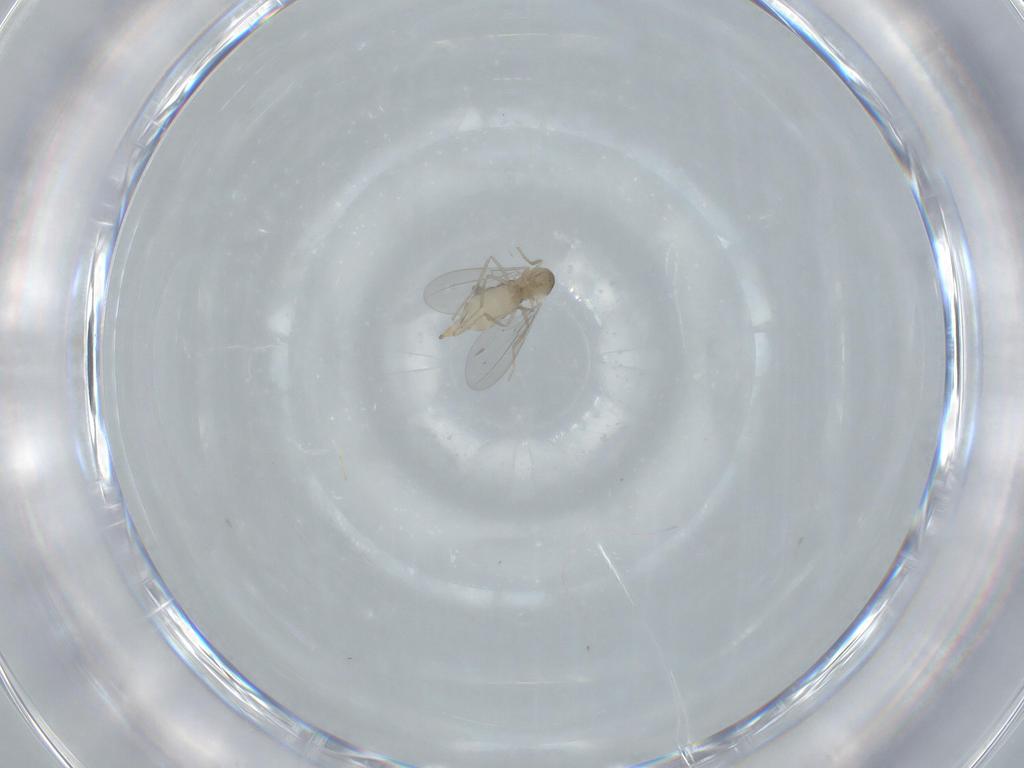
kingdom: Animalia
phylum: Arthropoda
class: Insecta
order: Diptera
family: Cecidomyiidae
